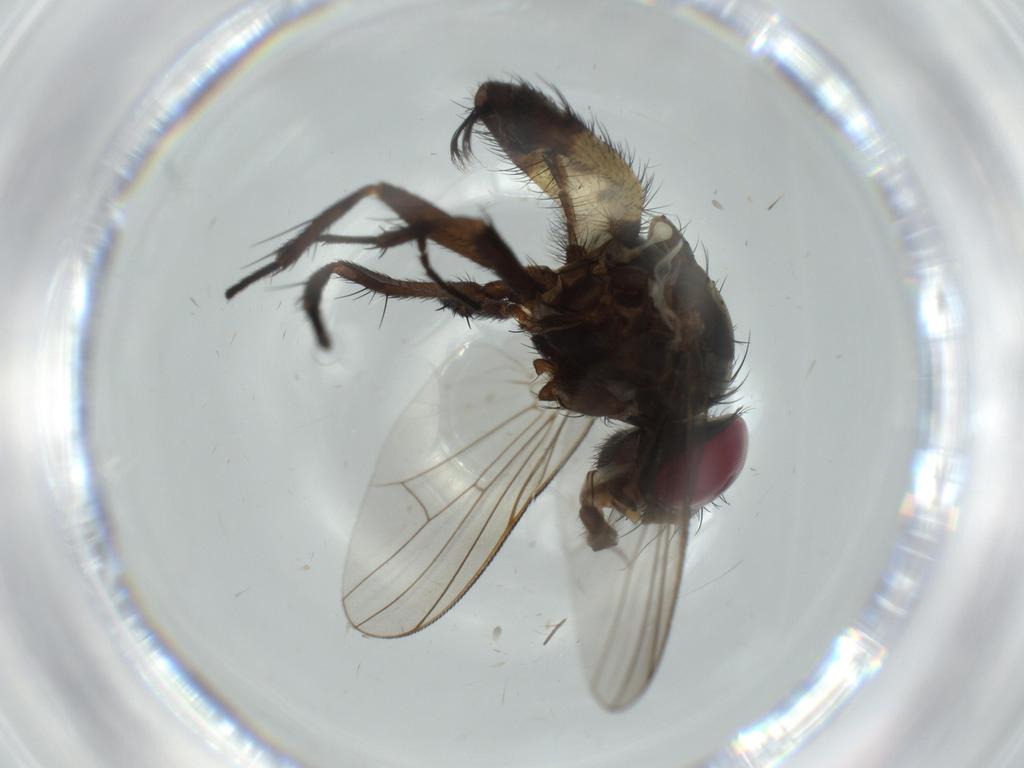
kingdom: Animalia
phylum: Arthropoda
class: Insecta
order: Diptera
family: Fannia
